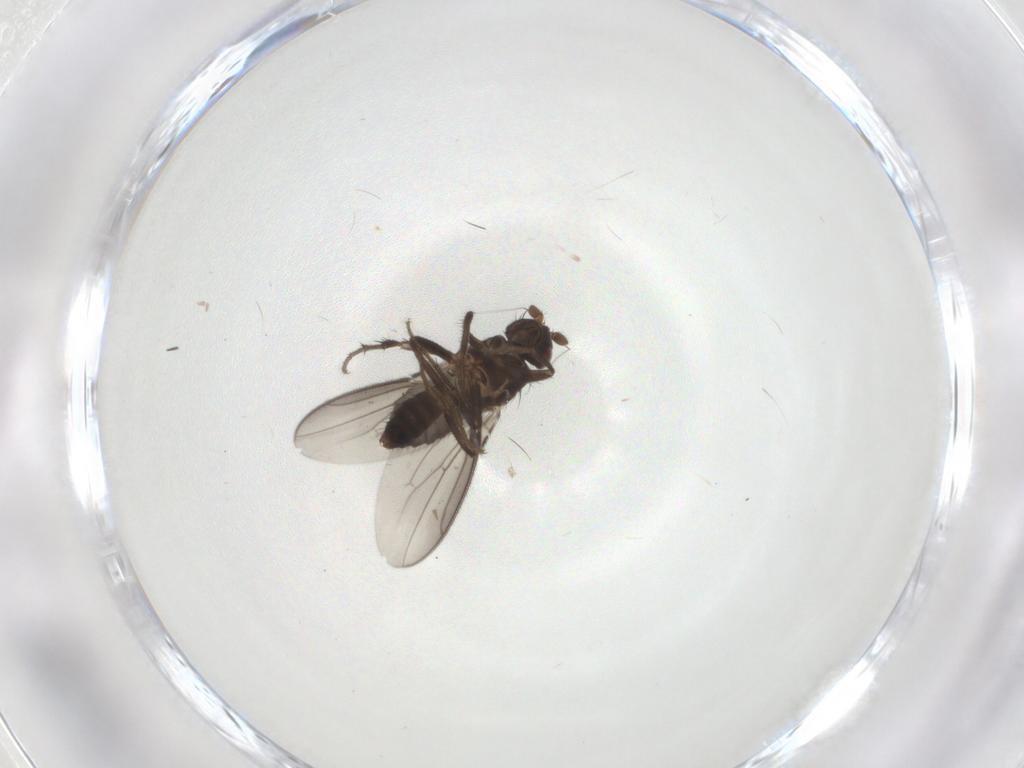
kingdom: Animalia
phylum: Arthropoda
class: Insecta
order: Diptera
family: Sphaeroceridae
